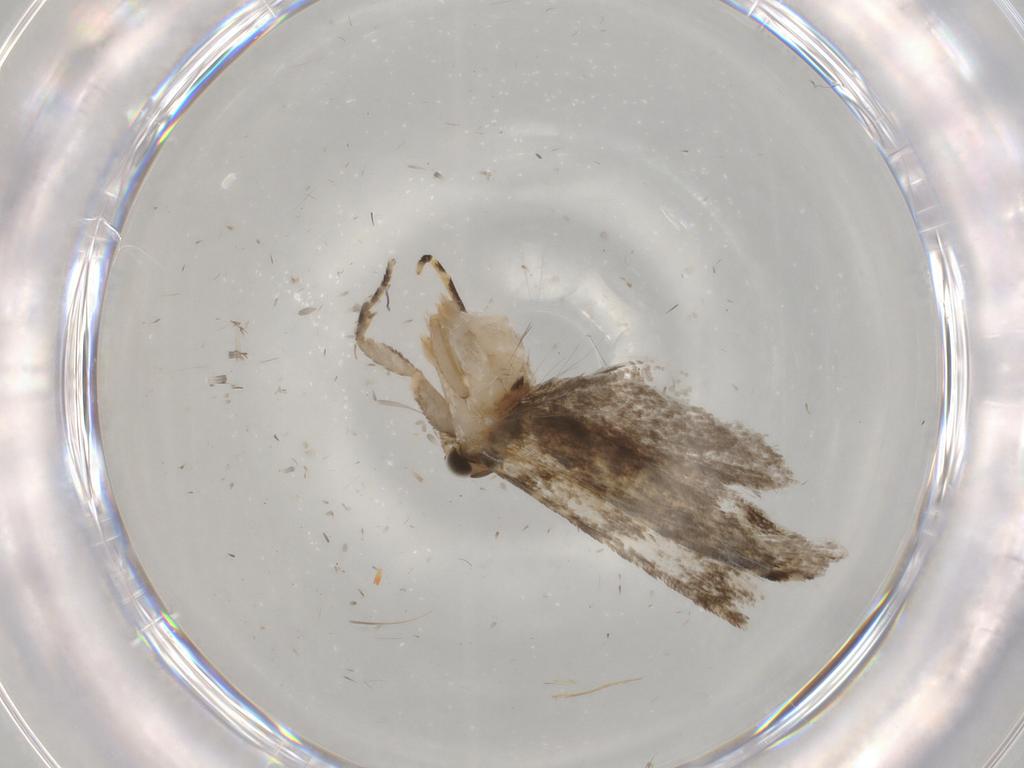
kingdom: Animalia
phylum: Arthropoda
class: Insecta
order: Lepidoptera
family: Tineidae
